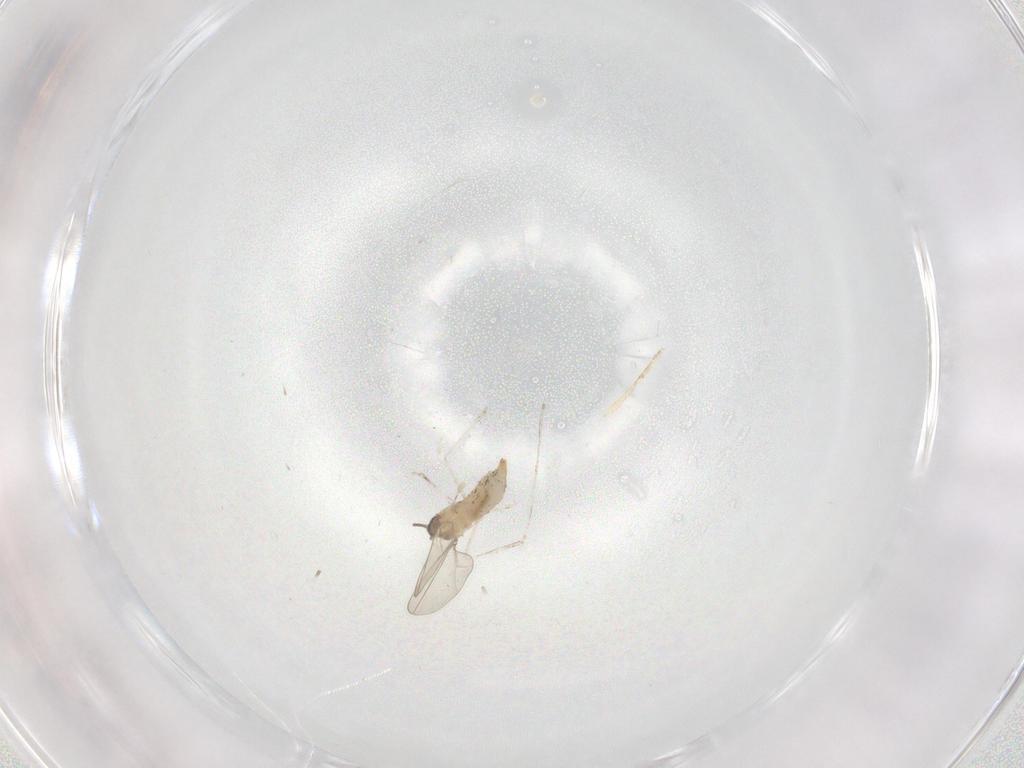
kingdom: Animalia
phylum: Arthropoda
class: Insecta
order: Diptera
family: Cecidomyiidae
